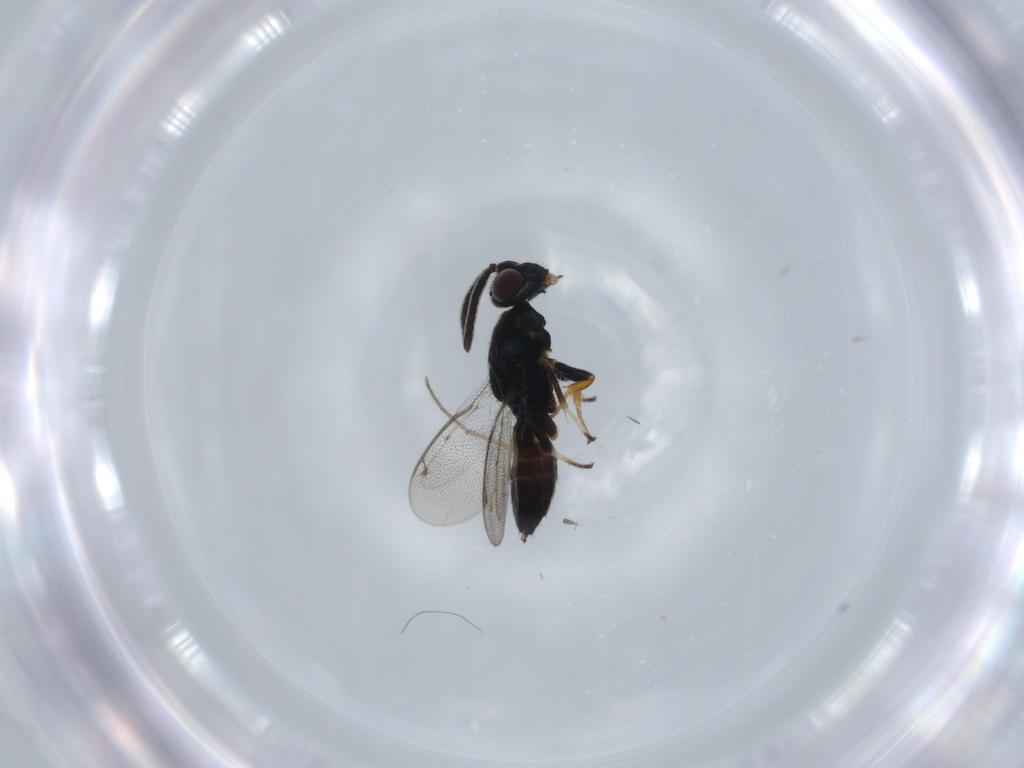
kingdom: Animalia
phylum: Arthropoda
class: Insecta
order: Hymenoptera
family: Eupelmidae
